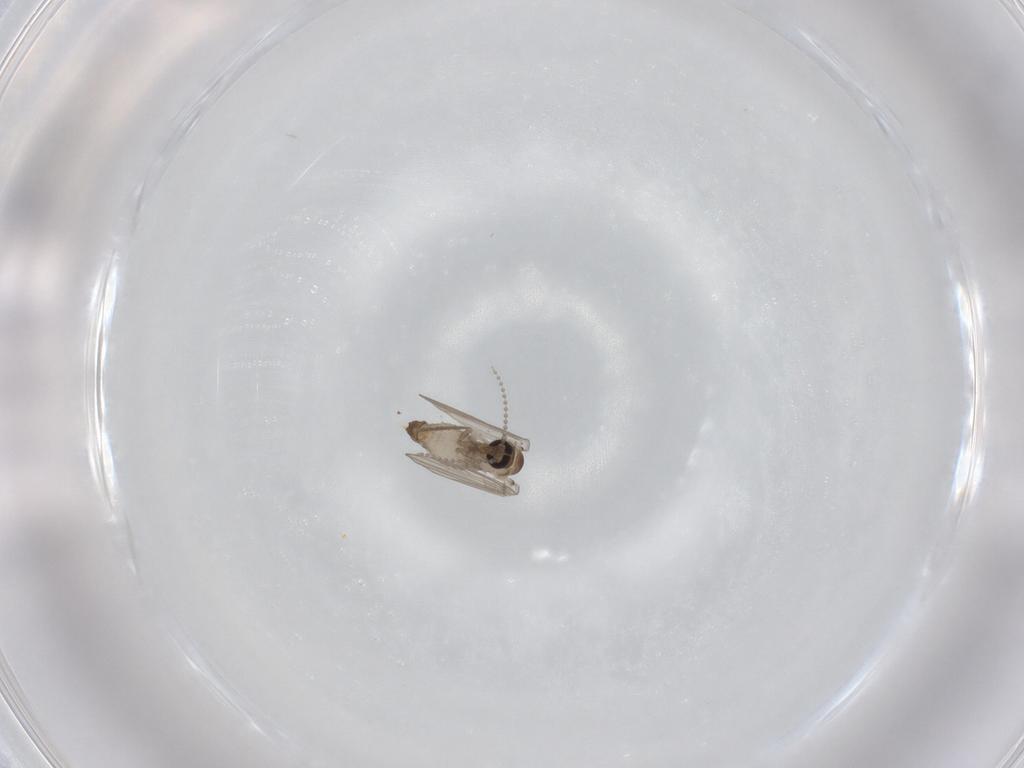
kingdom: Animalia
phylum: Arthropoda
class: Insecta
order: Diptera
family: Psychodidae
